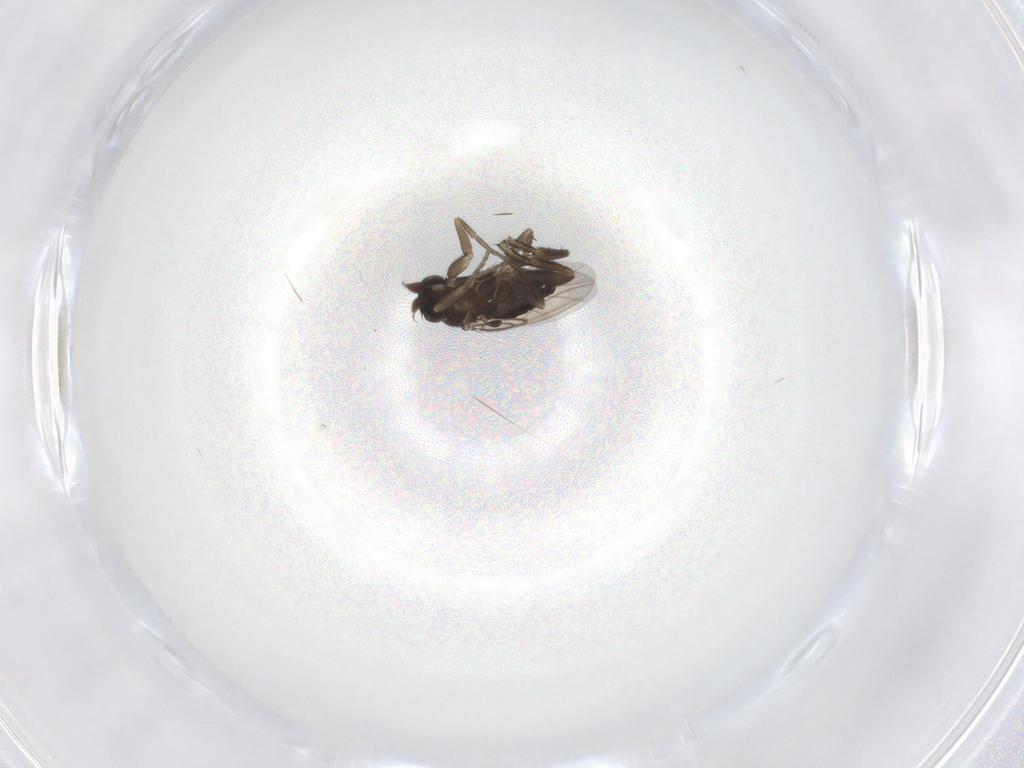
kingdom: Animalia
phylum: Arthropoda
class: Insecta
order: Diptera
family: Phoridae
